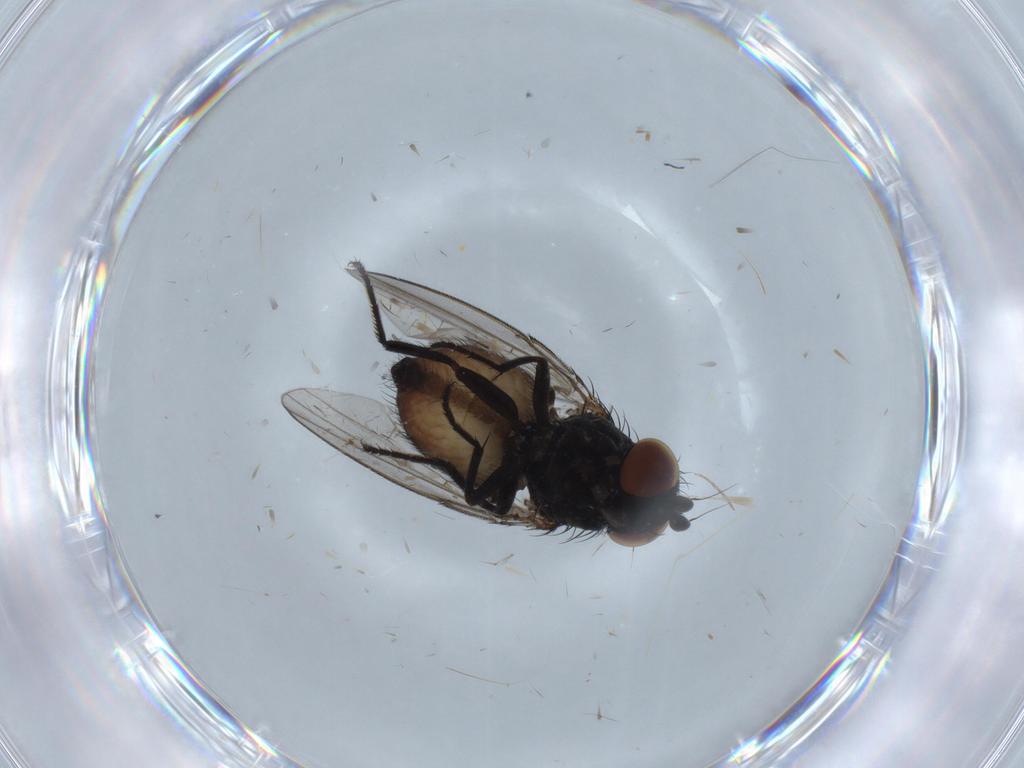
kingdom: Animalia
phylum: Arthropoda
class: Insecta
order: Diptera
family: Milichiidae
